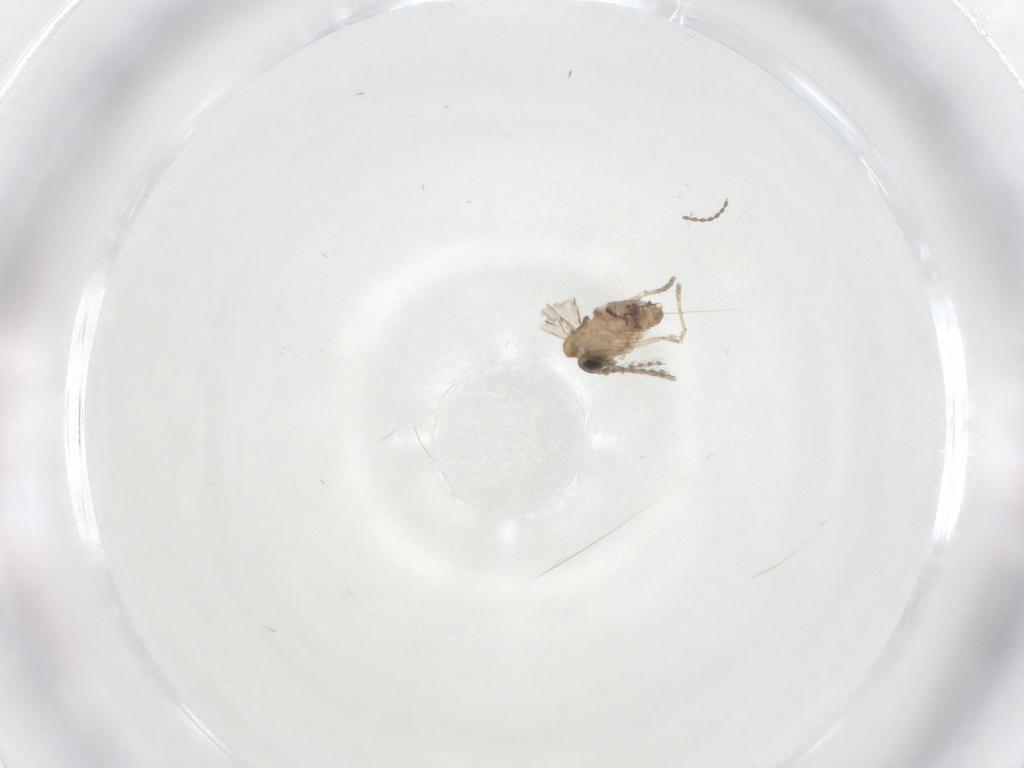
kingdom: Animalia
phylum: Arthropoda
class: Insecta
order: Diptera
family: Psychodidae
